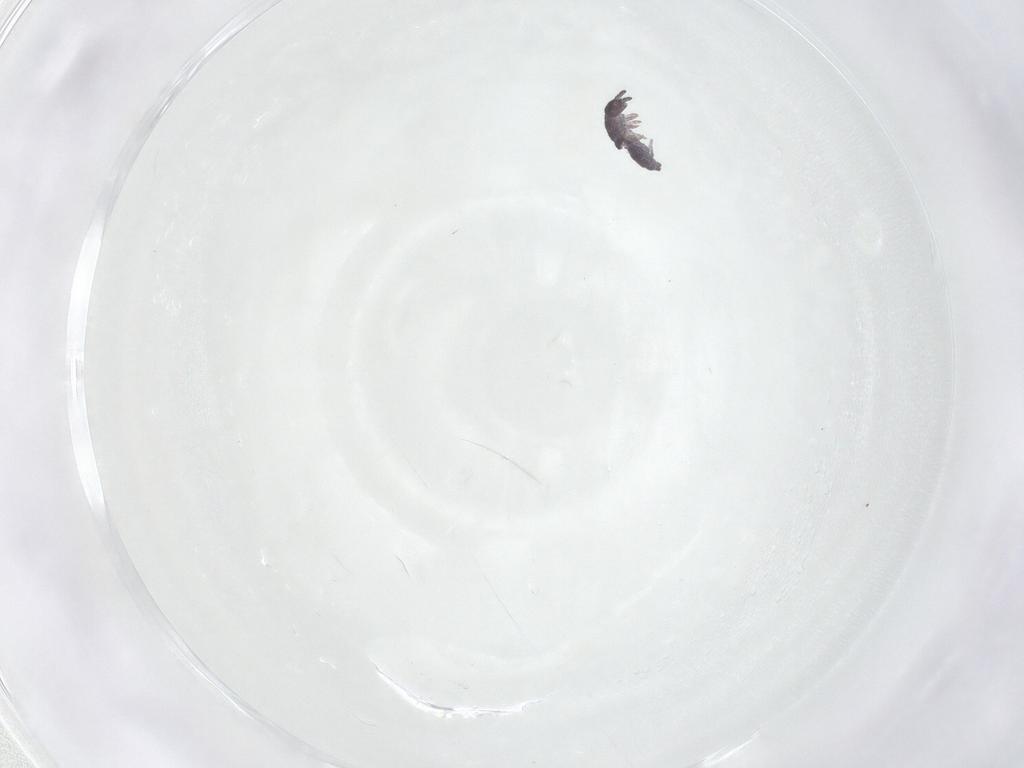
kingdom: Animalia
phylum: Arthropoda
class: Collembola
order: Poduromorpha
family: Hypogastruridae
